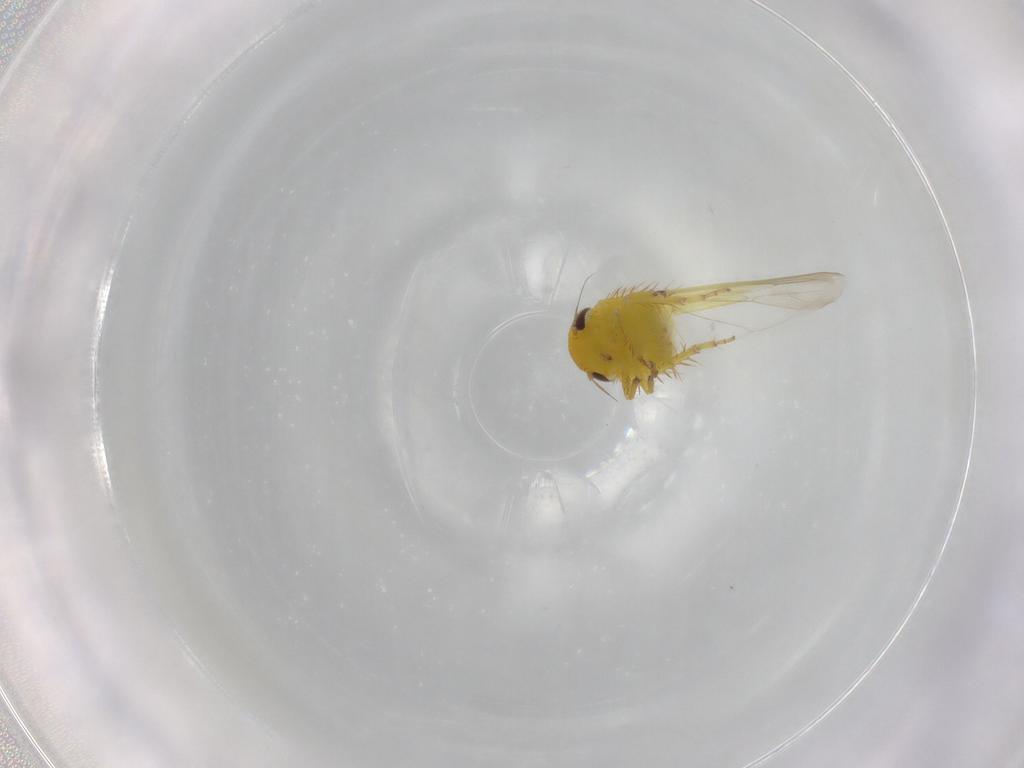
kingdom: Animalia
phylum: Arthropoda
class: Insecta
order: Hemiptera
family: Cicadellidae
